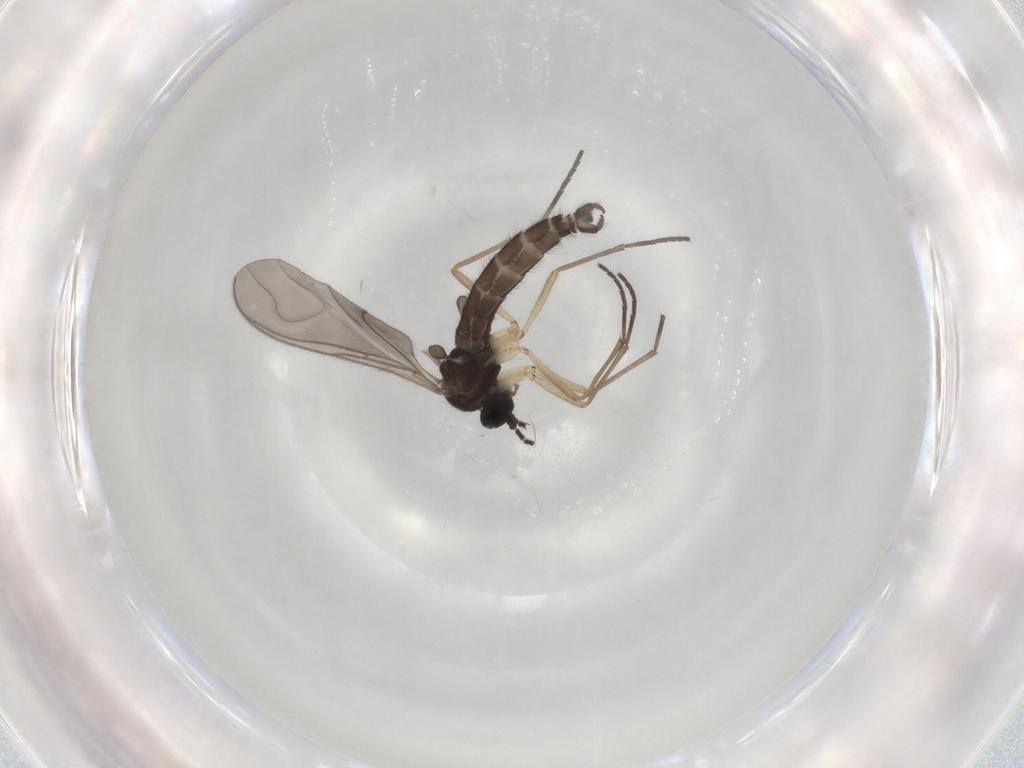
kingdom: Animalia
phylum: Arthropoda
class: Insecta
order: Diptera
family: Sciaridae
